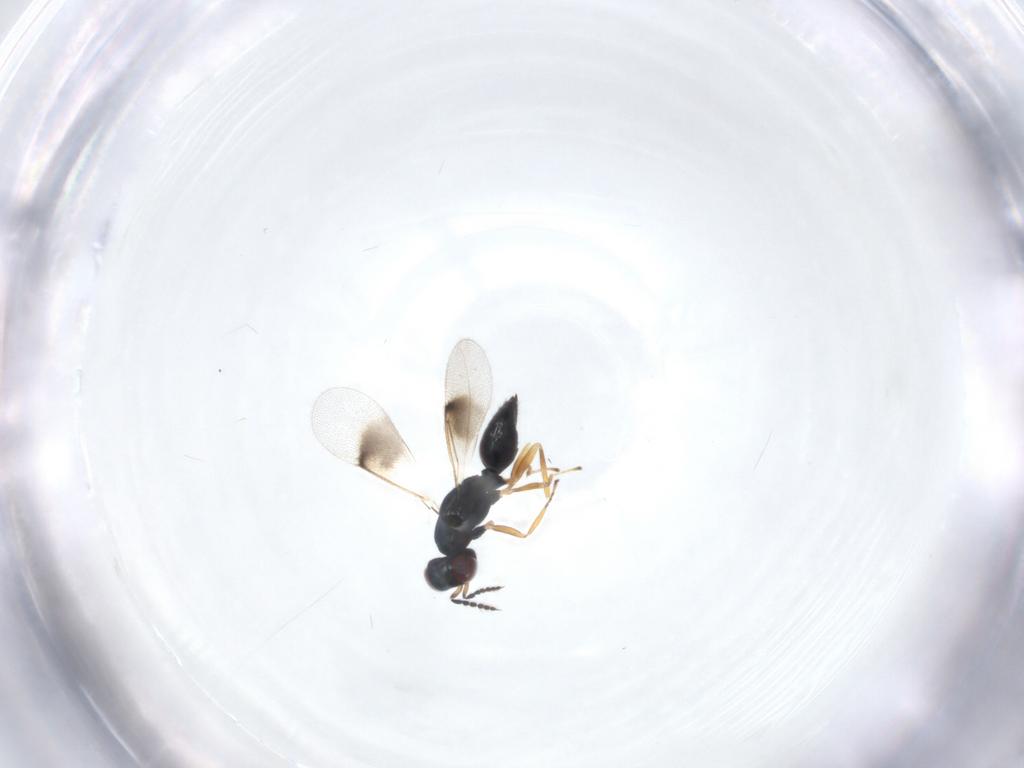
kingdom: Animalia
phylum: Arthropoda
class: Insecta
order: Hymenoptera
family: Eulophidae
